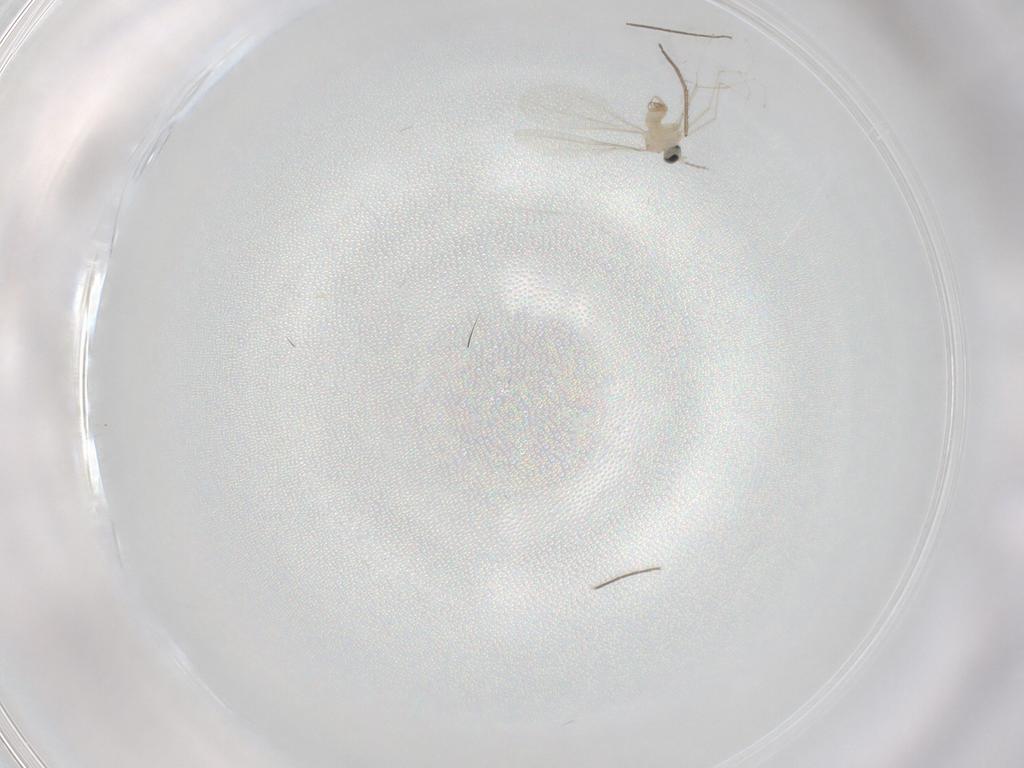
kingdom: Animalia
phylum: Arthropoda
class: Insecta
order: Diptera
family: Chironomidae
